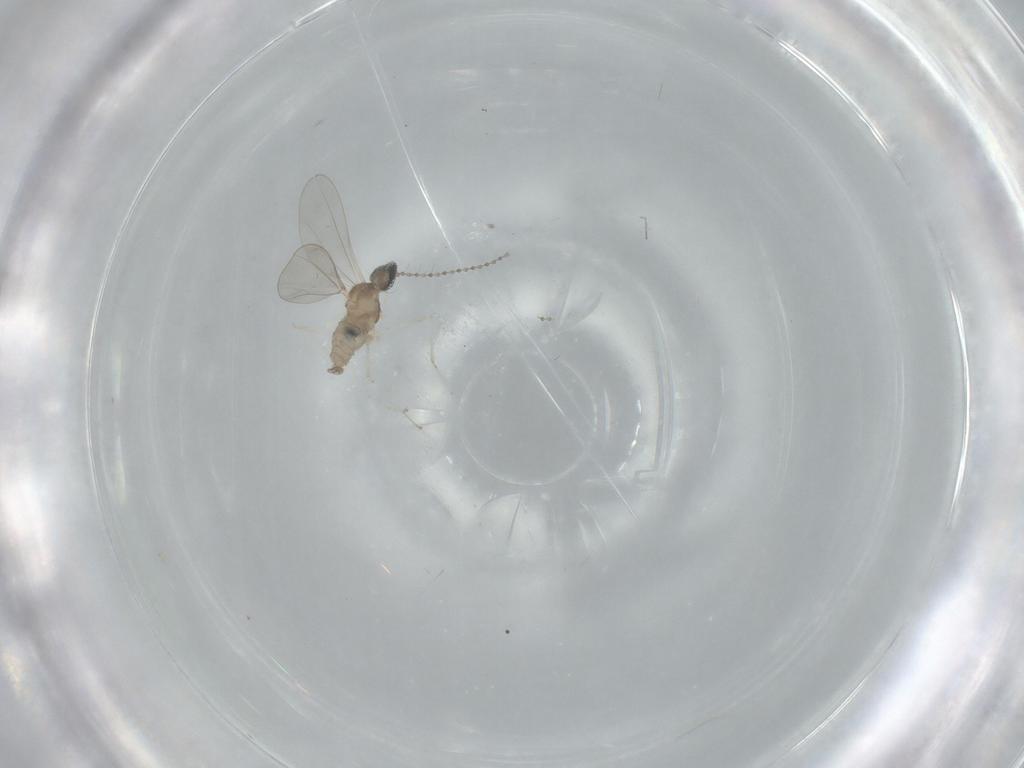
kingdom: Animalia
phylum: Arthropoda
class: Insecta
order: Diptera
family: Cecidomyiidae
